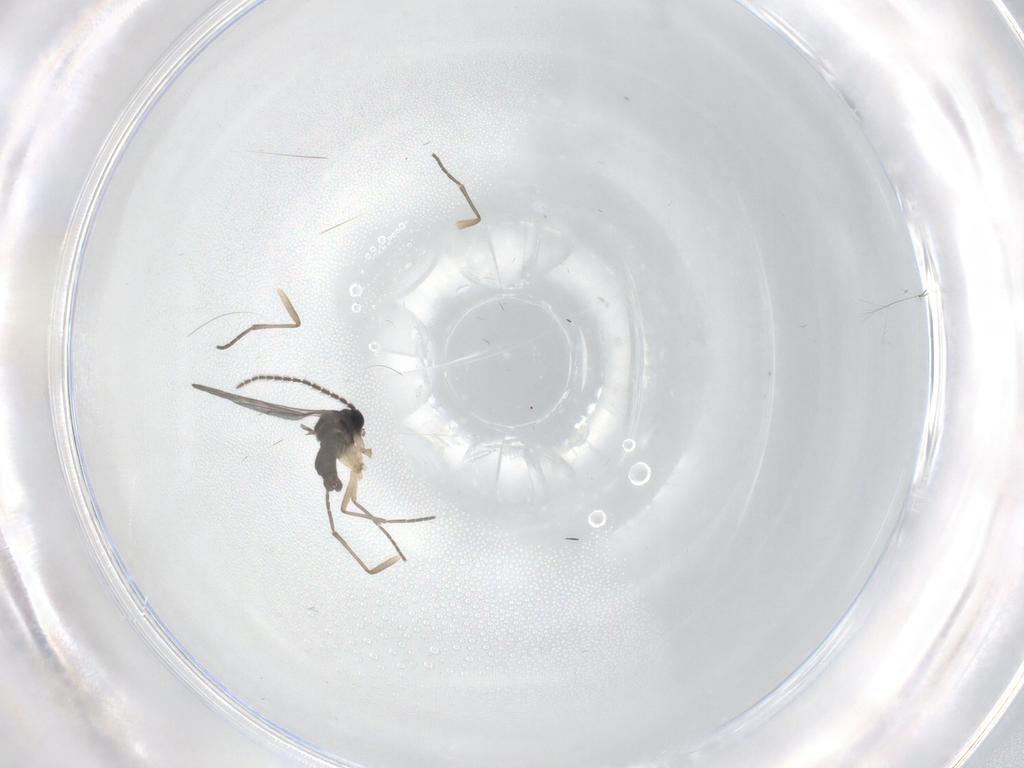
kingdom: Animalia
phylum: Arthropoda
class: Insecta
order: Diptera
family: Sciaridae
